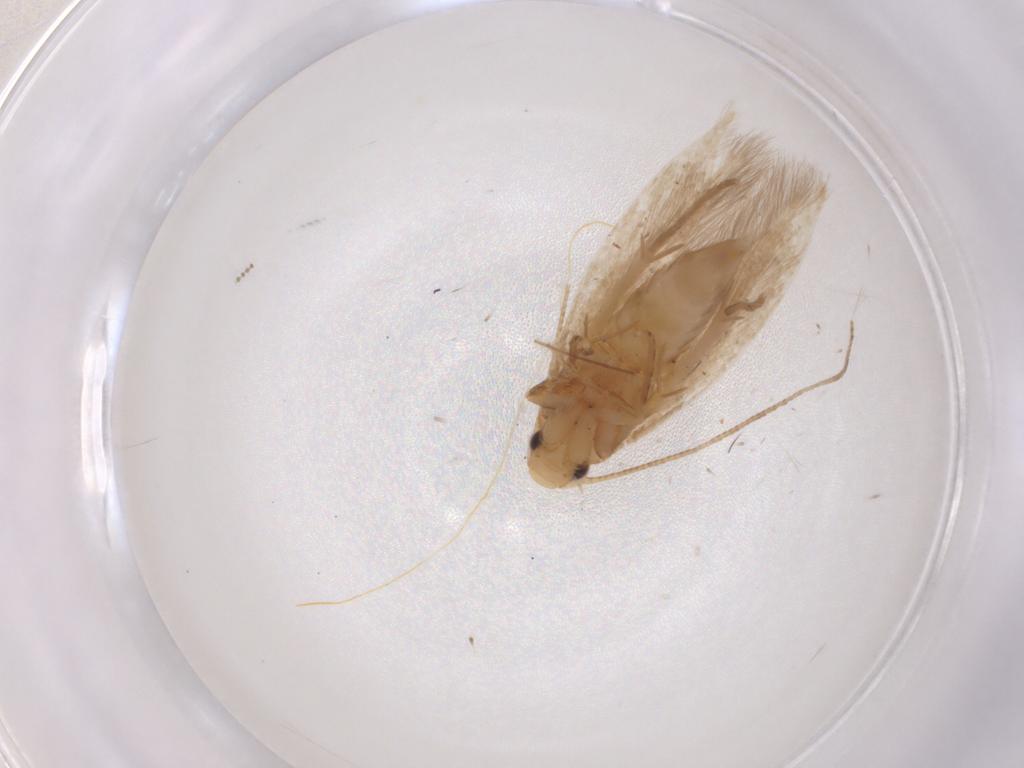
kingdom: Animalia
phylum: Arthropoda
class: Insecta
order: Lepidoptera
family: Tineidae
